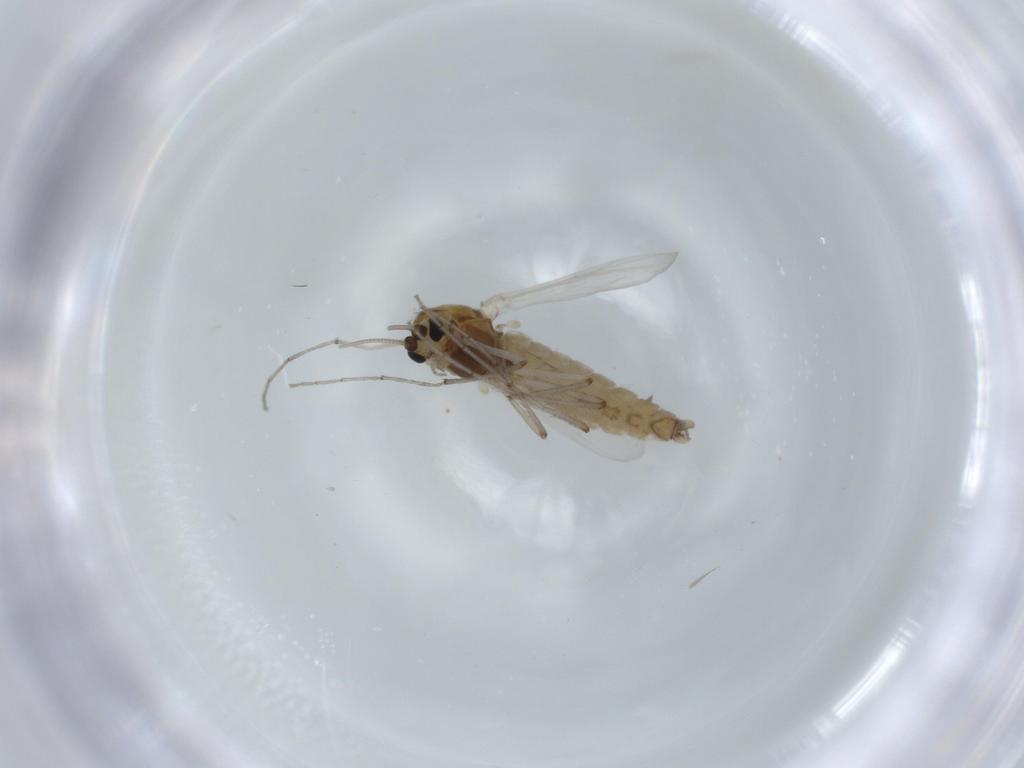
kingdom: Animalia
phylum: Arthropoda
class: Insecta
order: Diptera
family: Chironomidae
